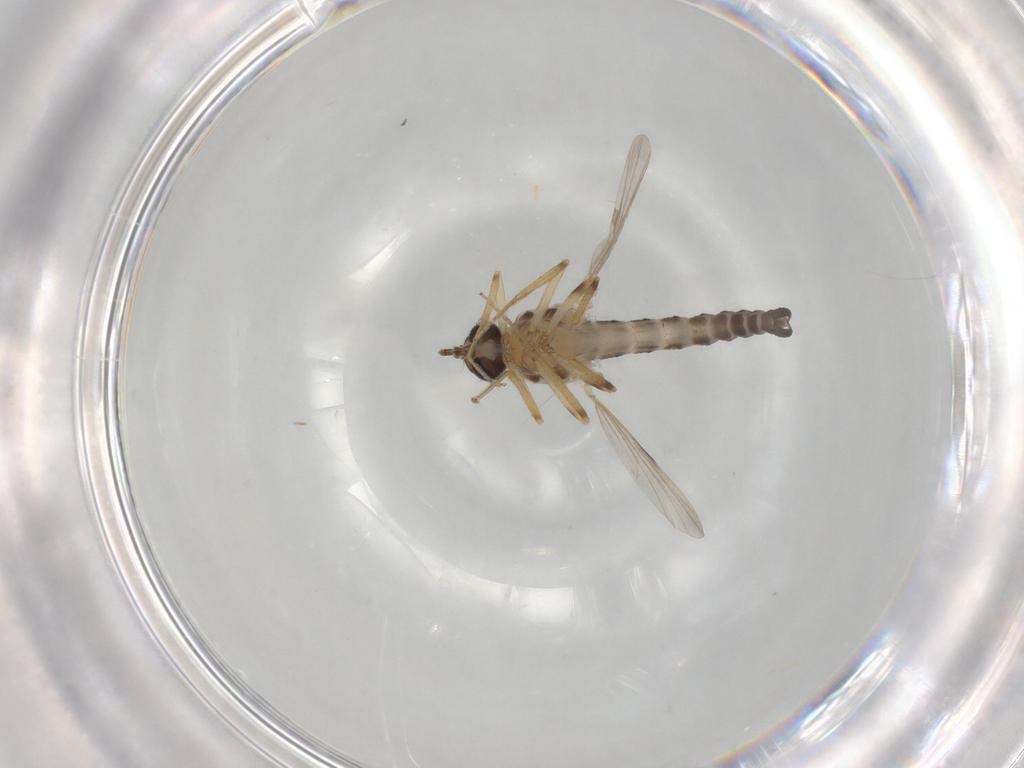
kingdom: Animalia
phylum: Arthropoda
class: Insecta
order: Diptera
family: Ceratopogonidae
